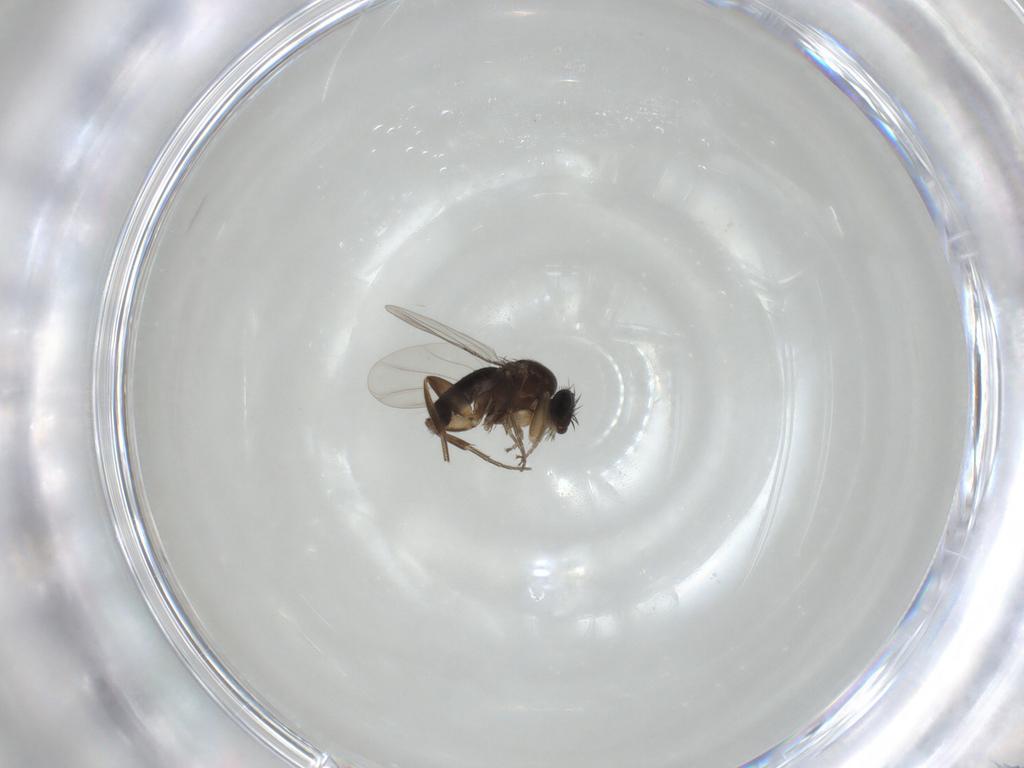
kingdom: Animalia
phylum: Arthropoda
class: Insecta
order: Diptera
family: Phoridae
